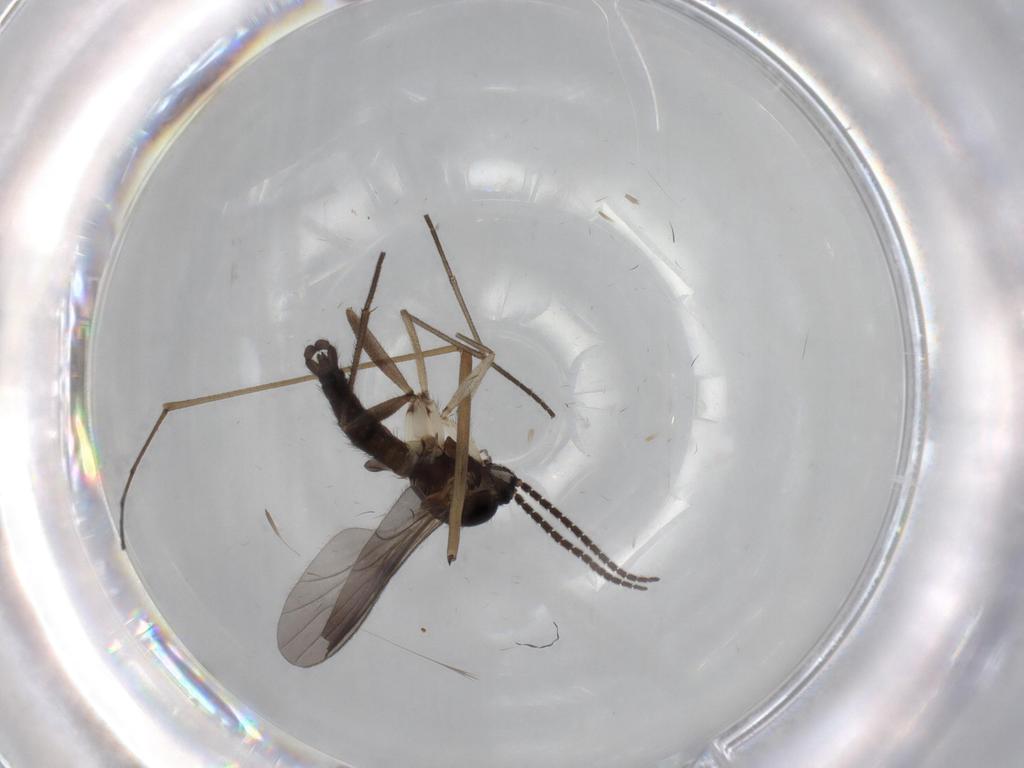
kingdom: Animalia
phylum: Arthropoda
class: Insecta
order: Diptera
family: Sciaridae
